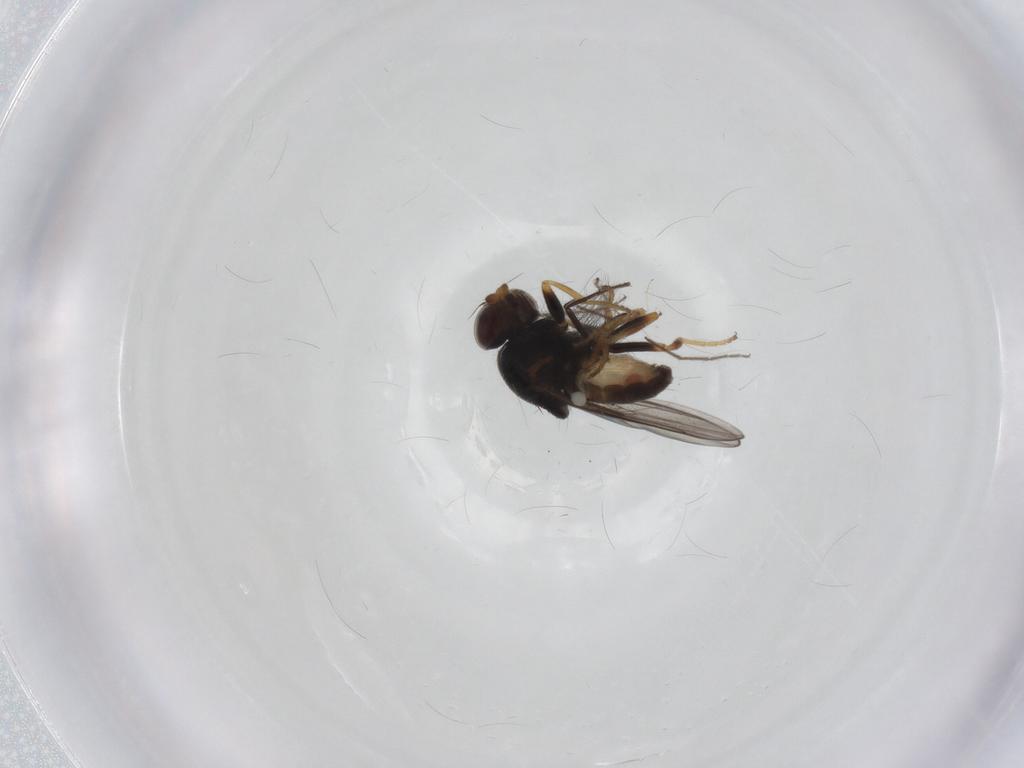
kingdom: Animalia
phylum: Arthropoda
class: Insecta
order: Diptera
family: Chloropidae
